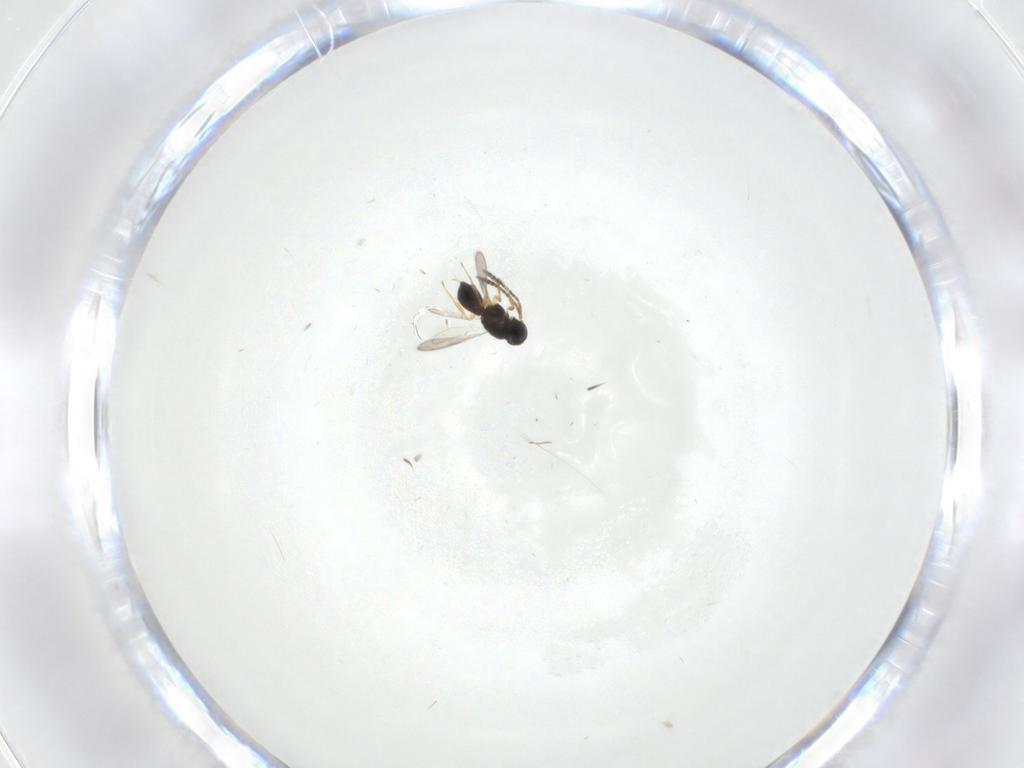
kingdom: Animalia
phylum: Arthropoda
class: Insecta
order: Hymenoptera
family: Scelionidae
